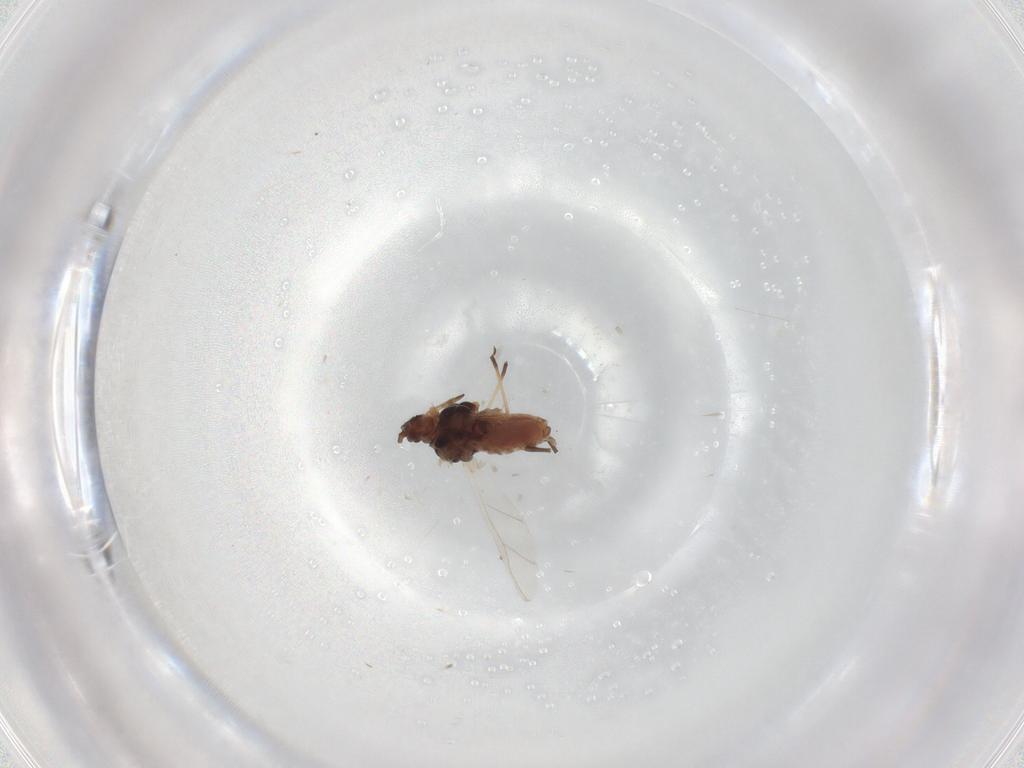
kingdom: Animalia
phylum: Arthropoda
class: Insecta
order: Hemiptera
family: Aphididae
